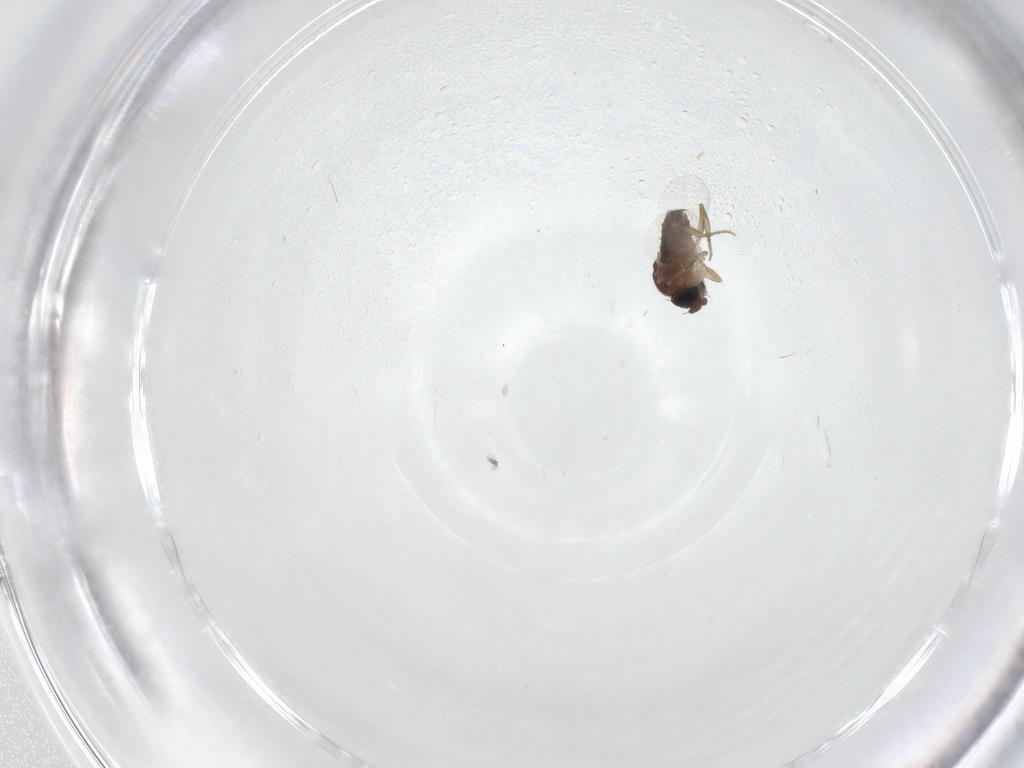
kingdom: Animalia
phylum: Arthropoda
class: Insecta
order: Diptera
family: Phoridae
